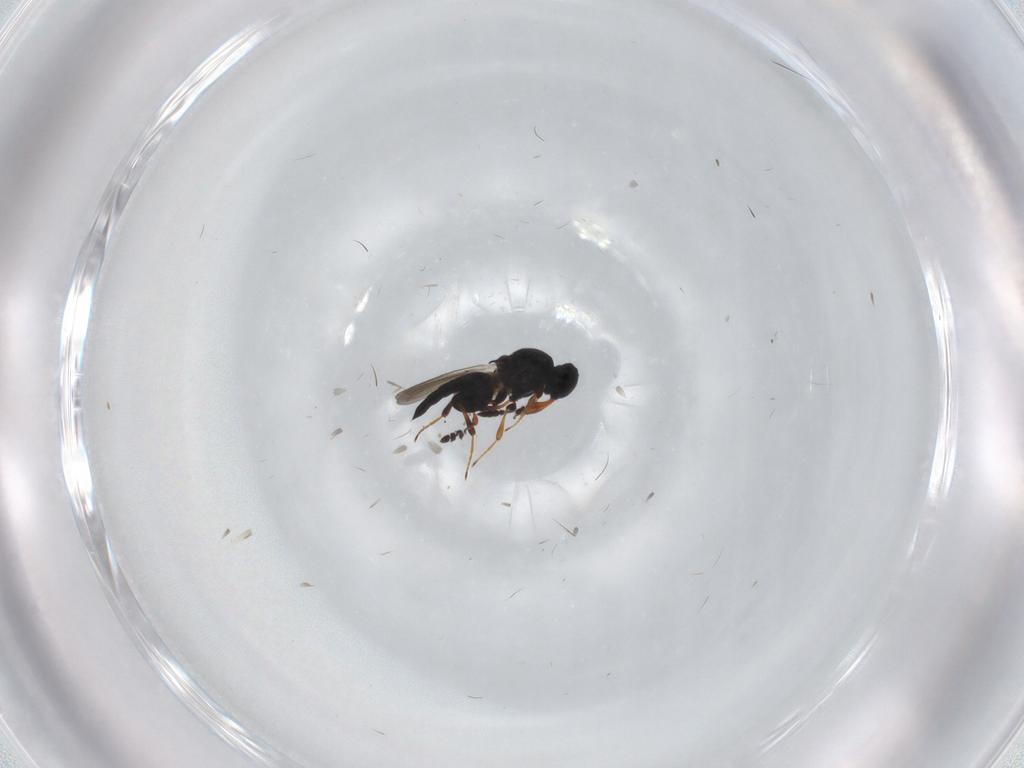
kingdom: Animalia
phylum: Arthropoda
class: Insecta
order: Hymenoptera
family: Platygastridae
